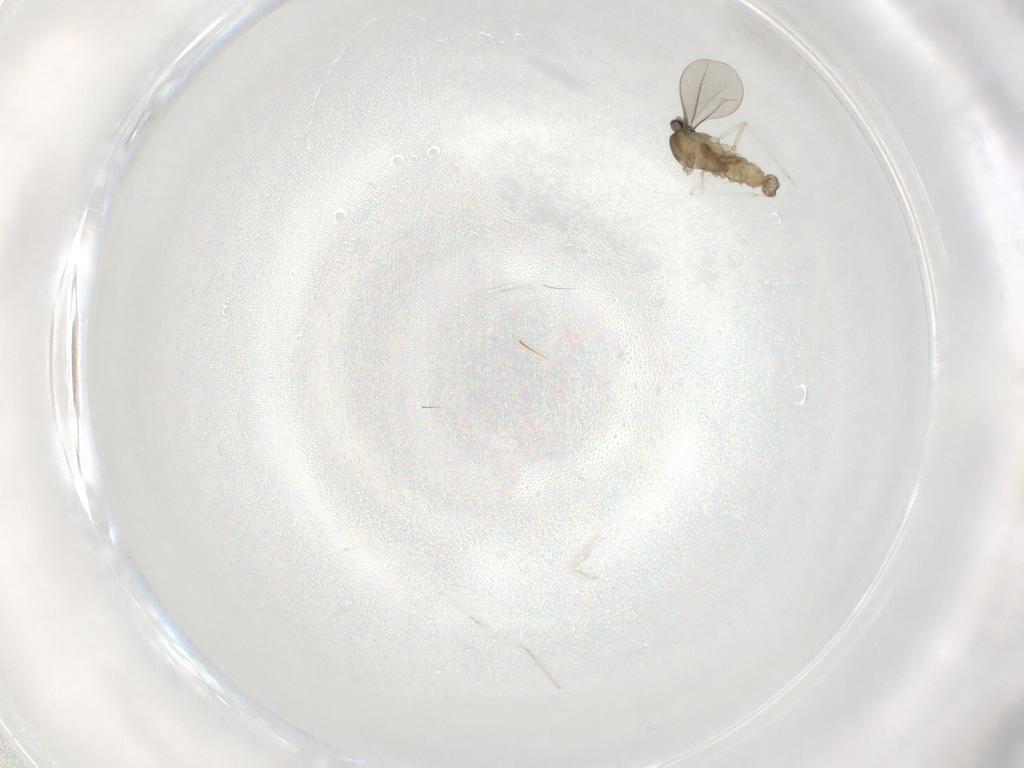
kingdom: Animalia
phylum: Arthropoda
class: Insecta
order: Diptera
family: Cecidomyiidae
